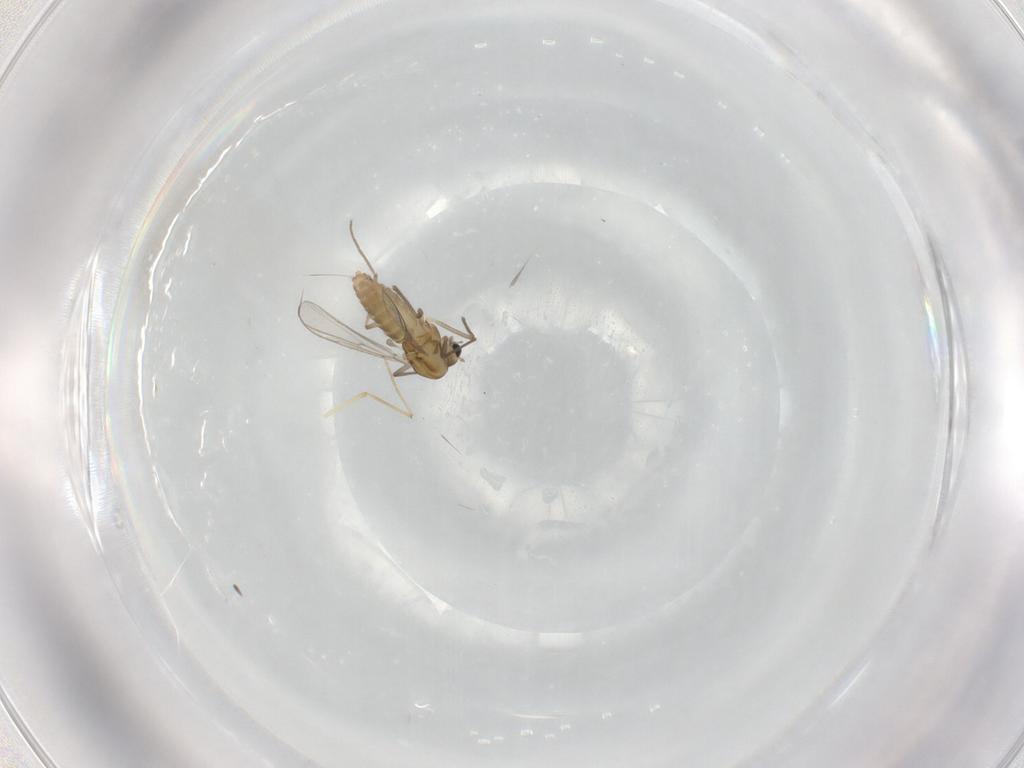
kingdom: Animalia
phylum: Arthropoda
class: Insecta
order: Diptera
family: Chironomidae
